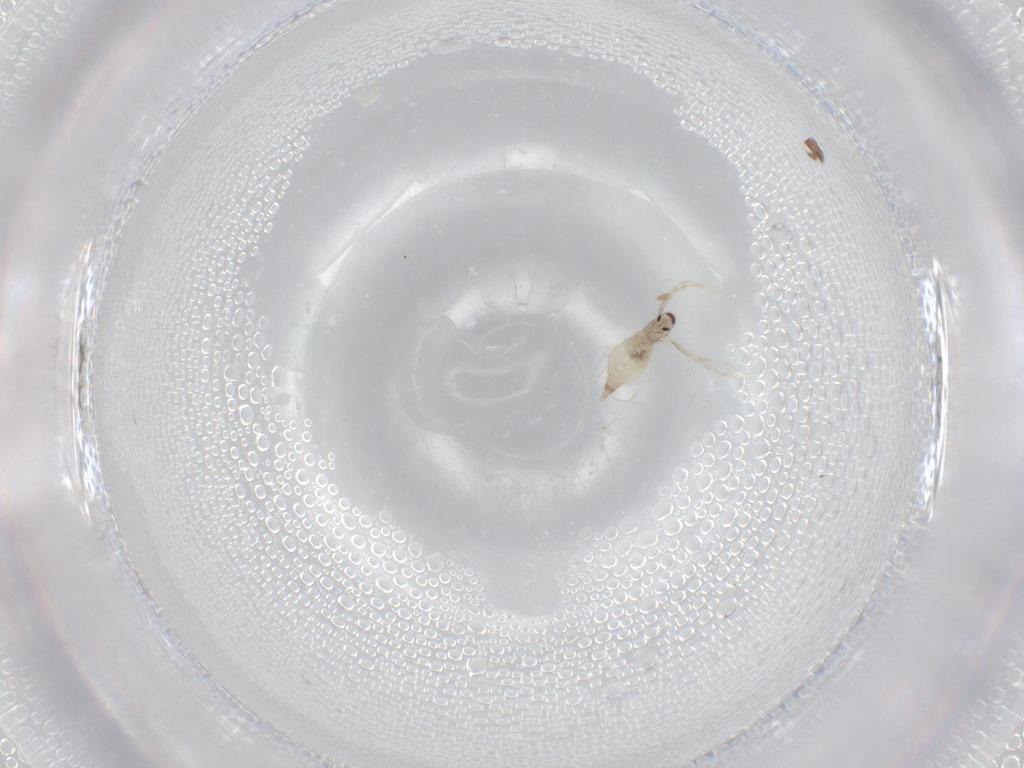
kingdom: Animalia
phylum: Arthropoda
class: Insecta
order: Diptera
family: Cecidomyiidae
